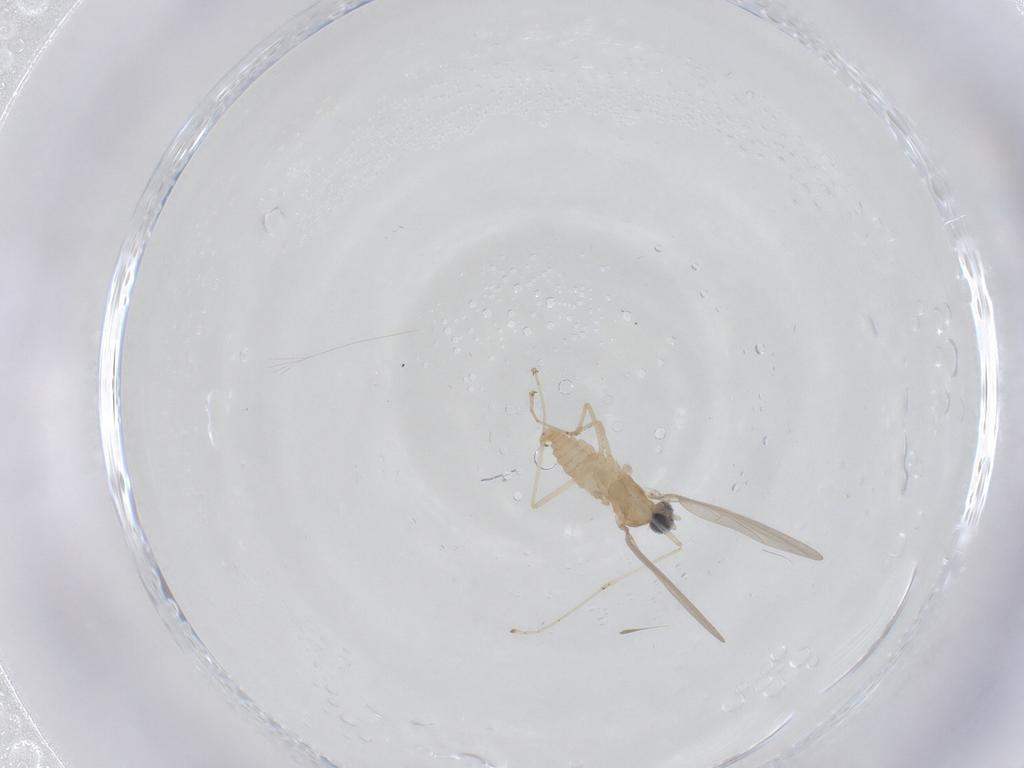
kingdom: Animalia
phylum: Arthropoda
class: Insecta
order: Diptera
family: Cecidomyiidae
